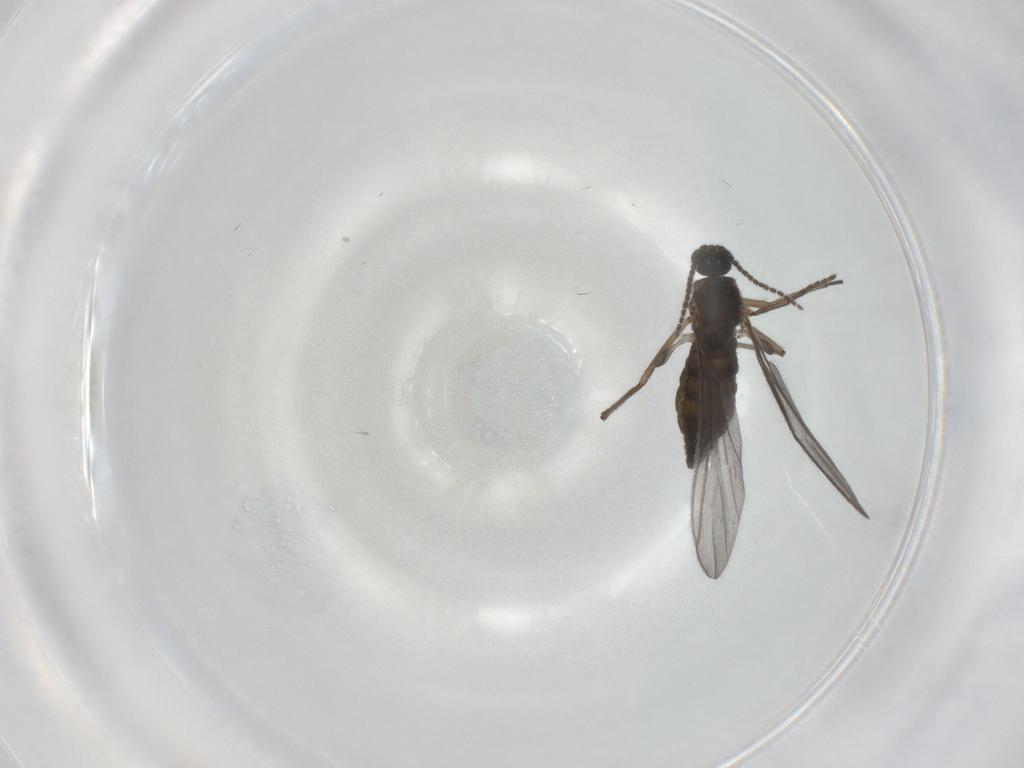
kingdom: Animalia
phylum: Arthropoda
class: Insecta
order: Diptera
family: Sciaridae
